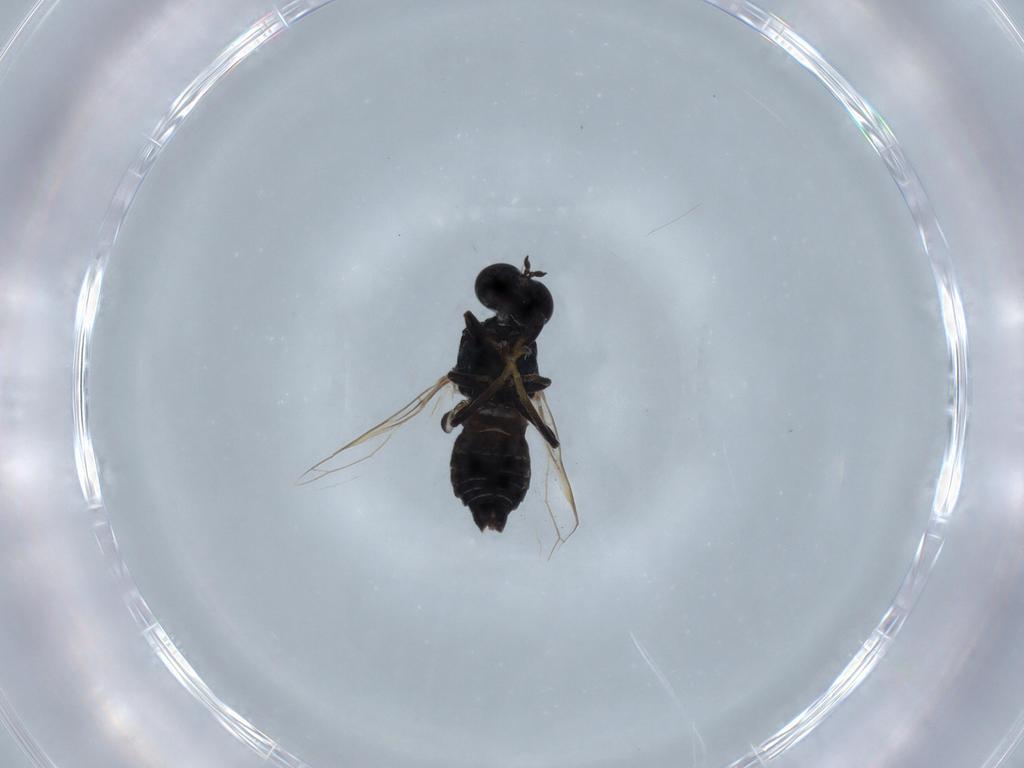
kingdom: Animalia
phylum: Arthropoda
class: Insecta
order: Diptera
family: Scenopinidae
